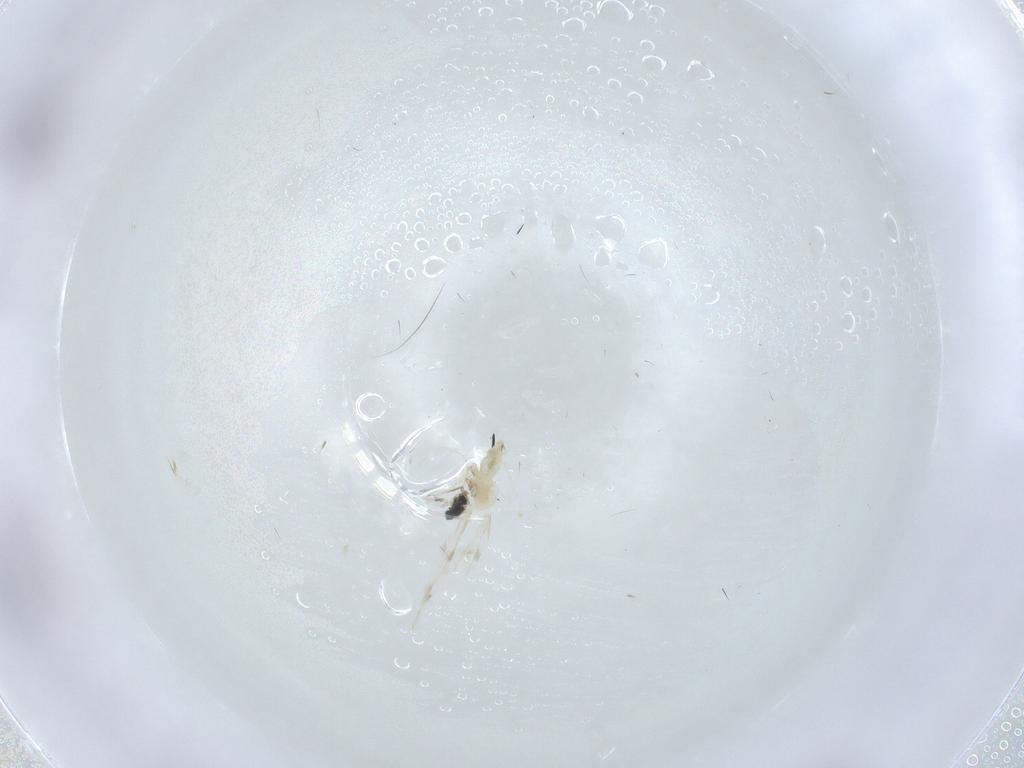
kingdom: Animalia
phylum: Arthropoda
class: Insecta
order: Diptera
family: Cecidomyiidae
